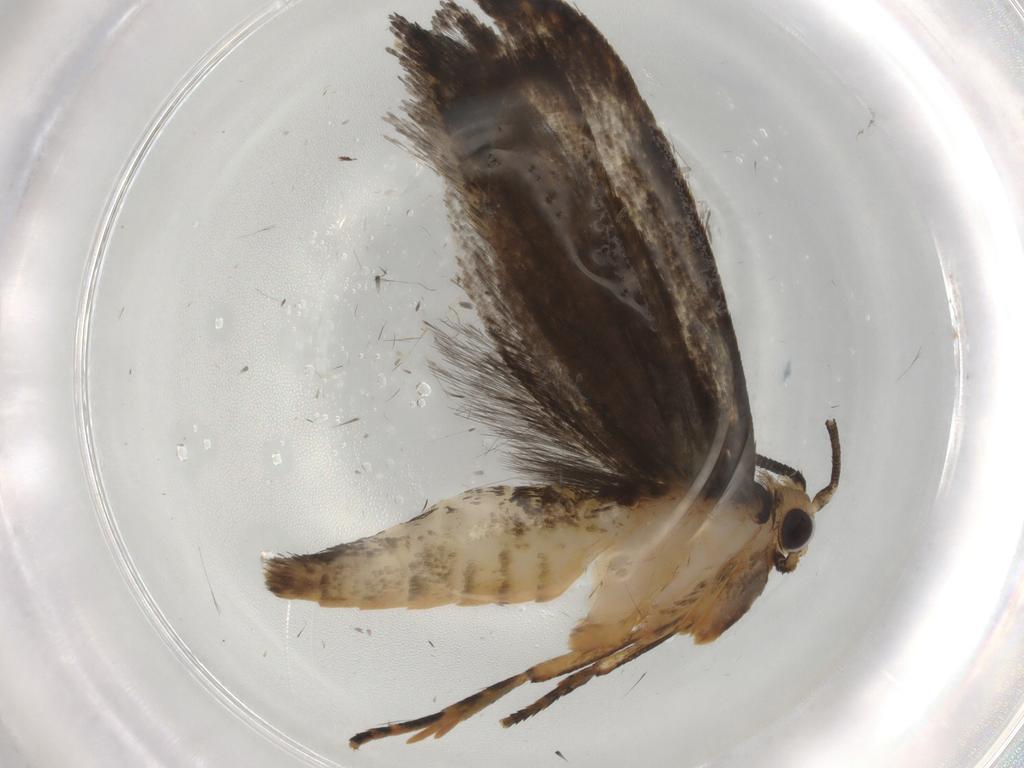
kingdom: Animalia
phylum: Arthropoda
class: Insecta
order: Lepidoptera
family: Tineidae
